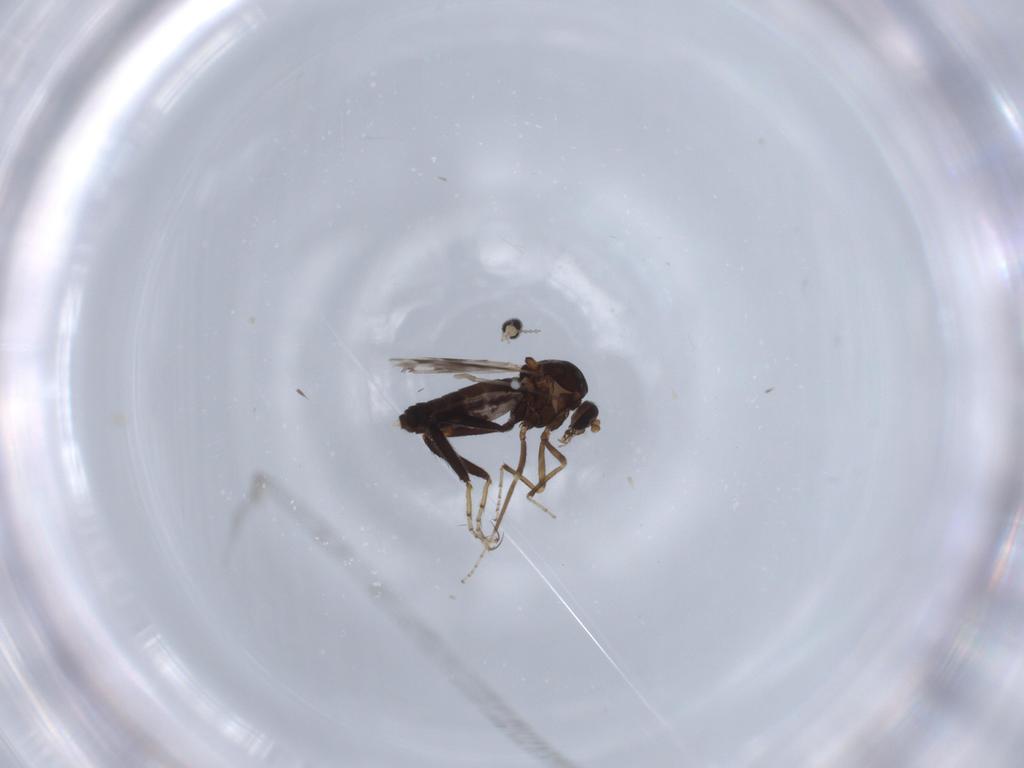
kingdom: Animalia
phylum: Arthropoda
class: Insecta
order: Diptera
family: Ceratopogonidae
